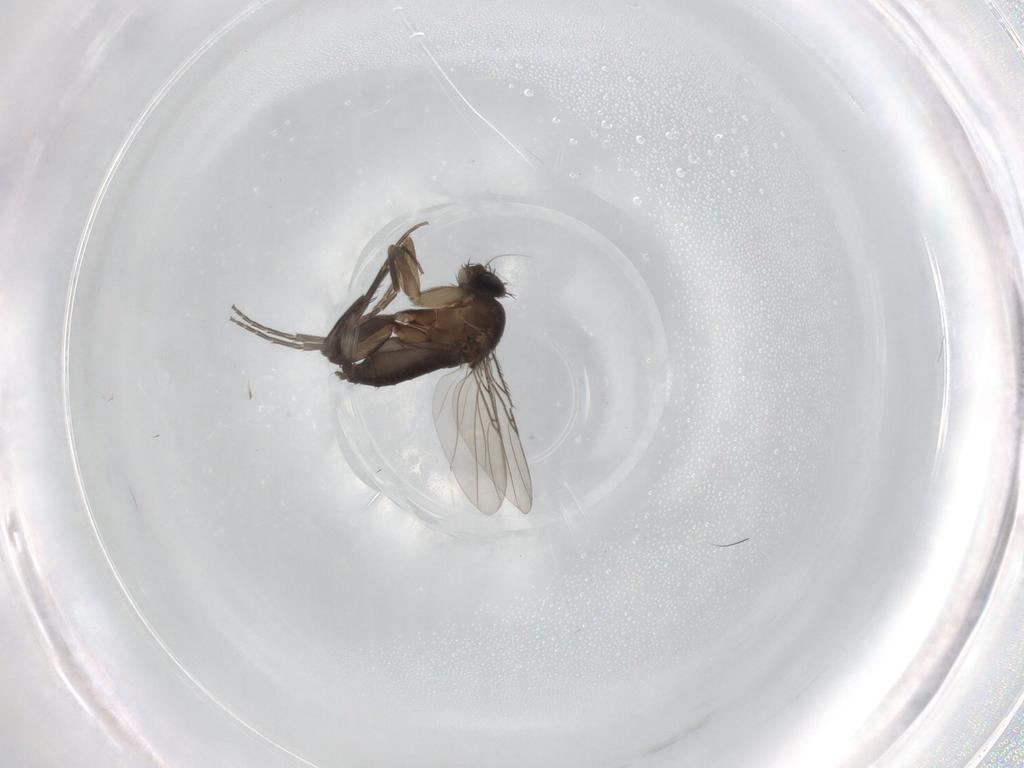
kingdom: Animalia
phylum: Arthropoda
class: Insecta
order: Diptera
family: Phoridae
